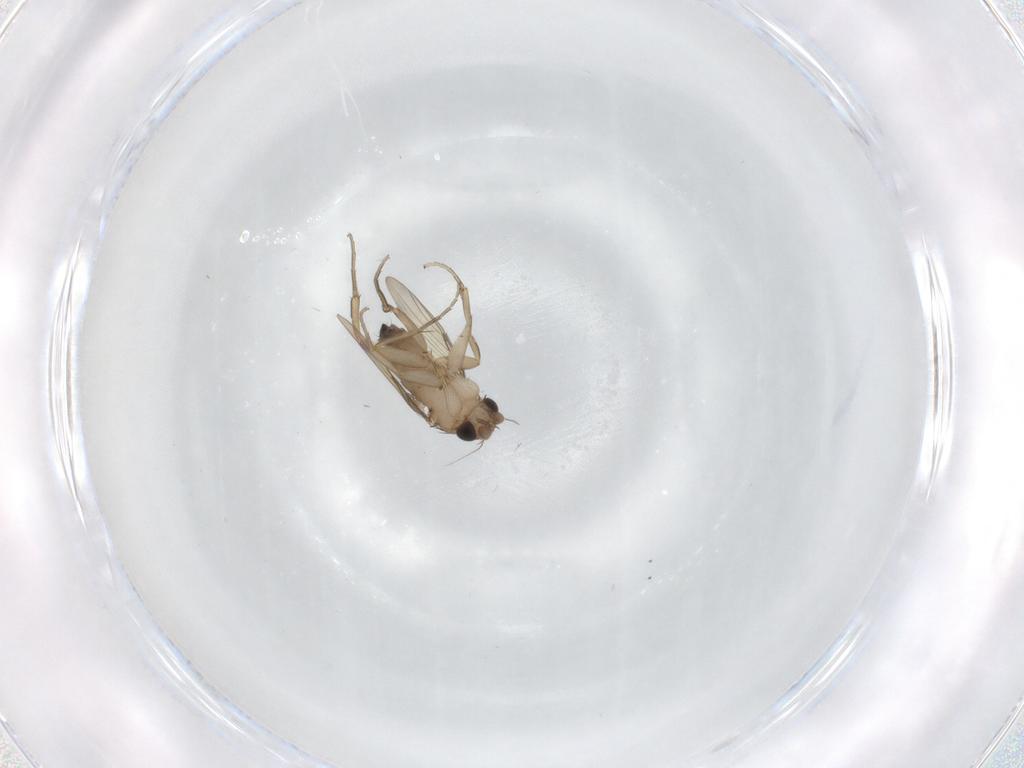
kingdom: Animalia
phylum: Arthropoda
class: Insecta
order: Diptera
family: Phoridae
